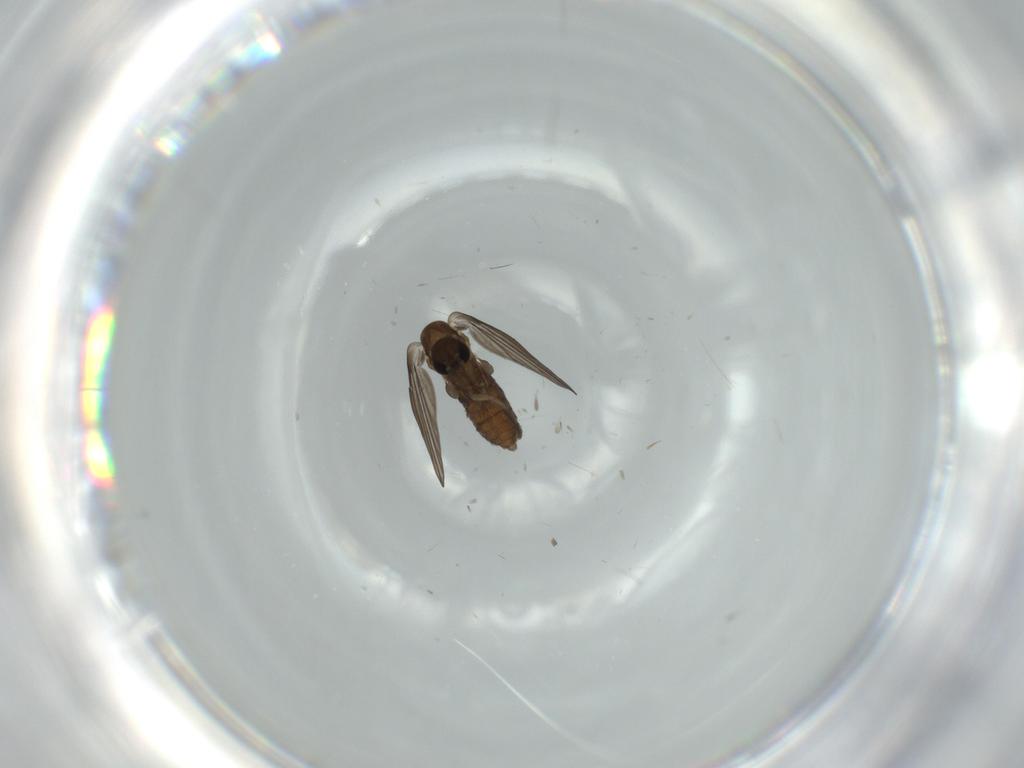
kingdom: Animalia
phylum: Arthropoda
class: Insecta
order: Diptera
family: Psychodidae
